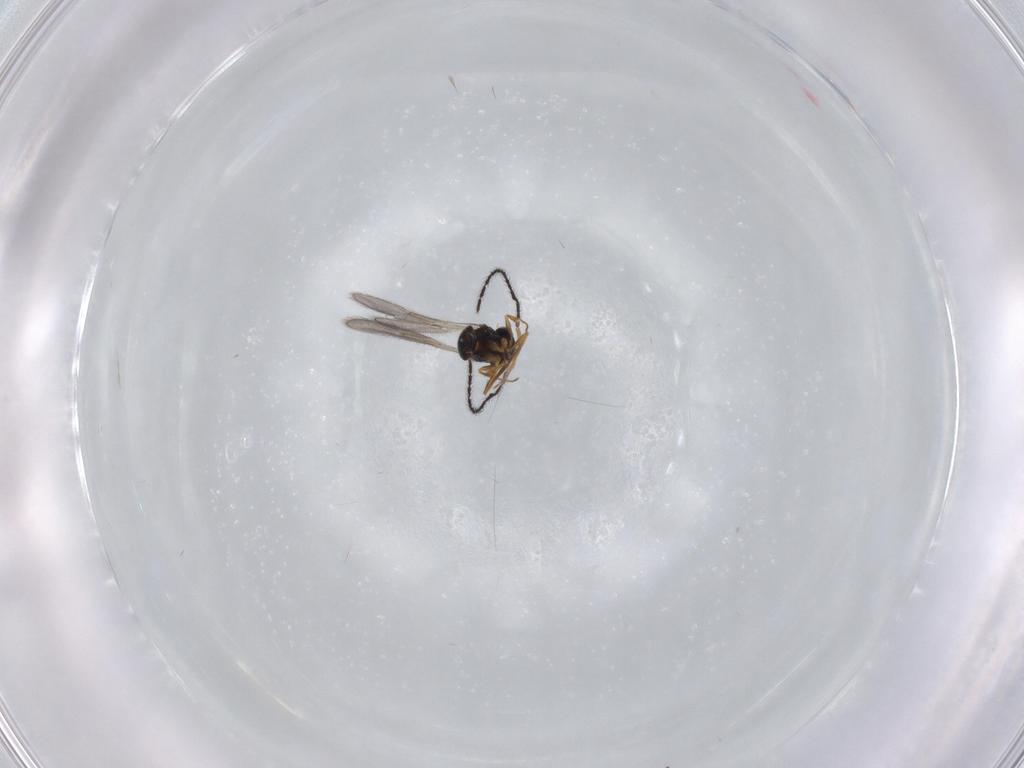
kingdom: Animalia
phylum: Arthropoda
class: Insecta
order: Hymenoptera
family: Scelionidae
